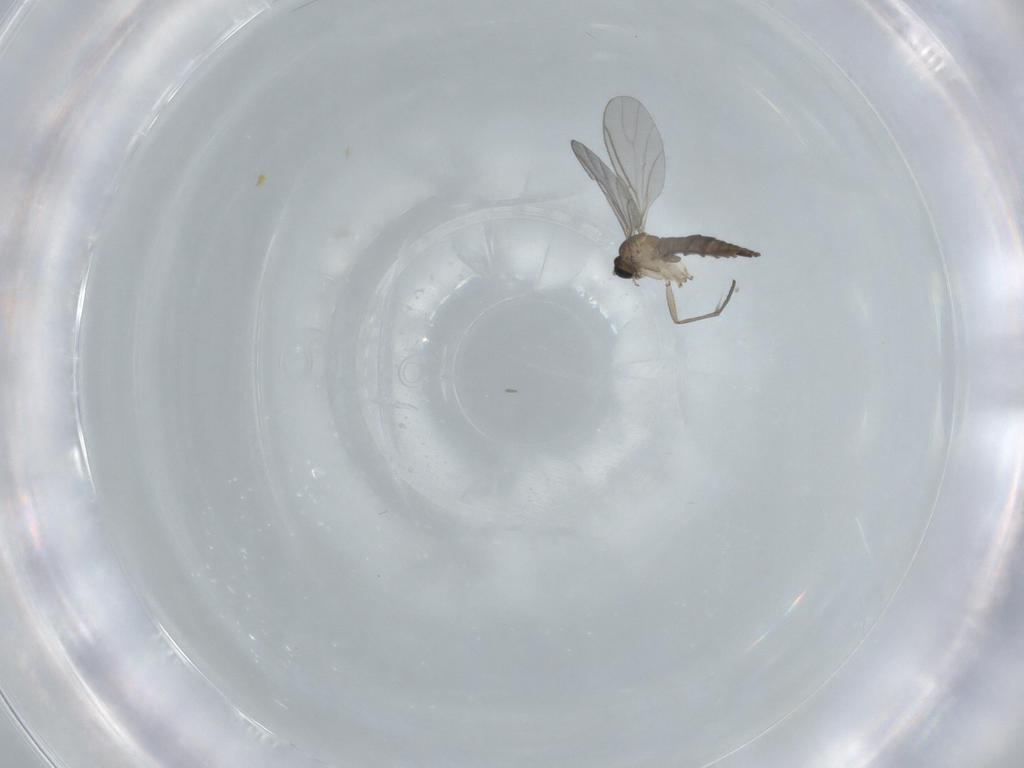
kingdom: Animalia
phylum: Arthropoda
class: Insecta
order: Diptera
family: Sciaridae
